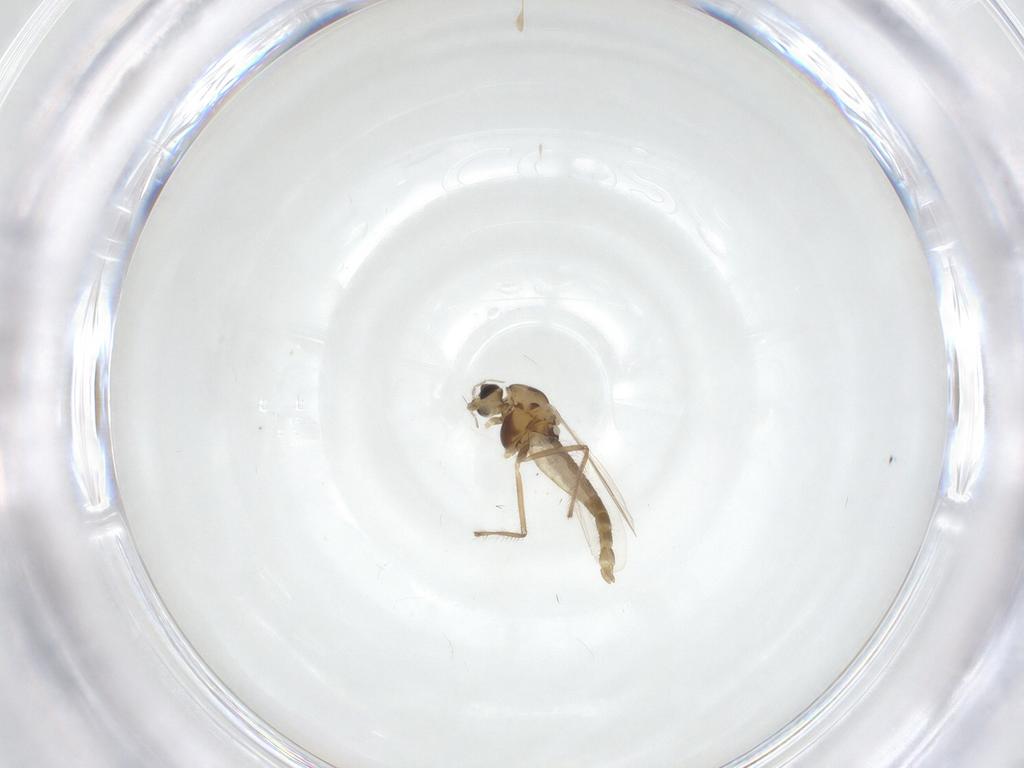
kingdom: Animalia
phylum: Arthropoda
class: Insecta
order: Diptera
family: Chironomidae
